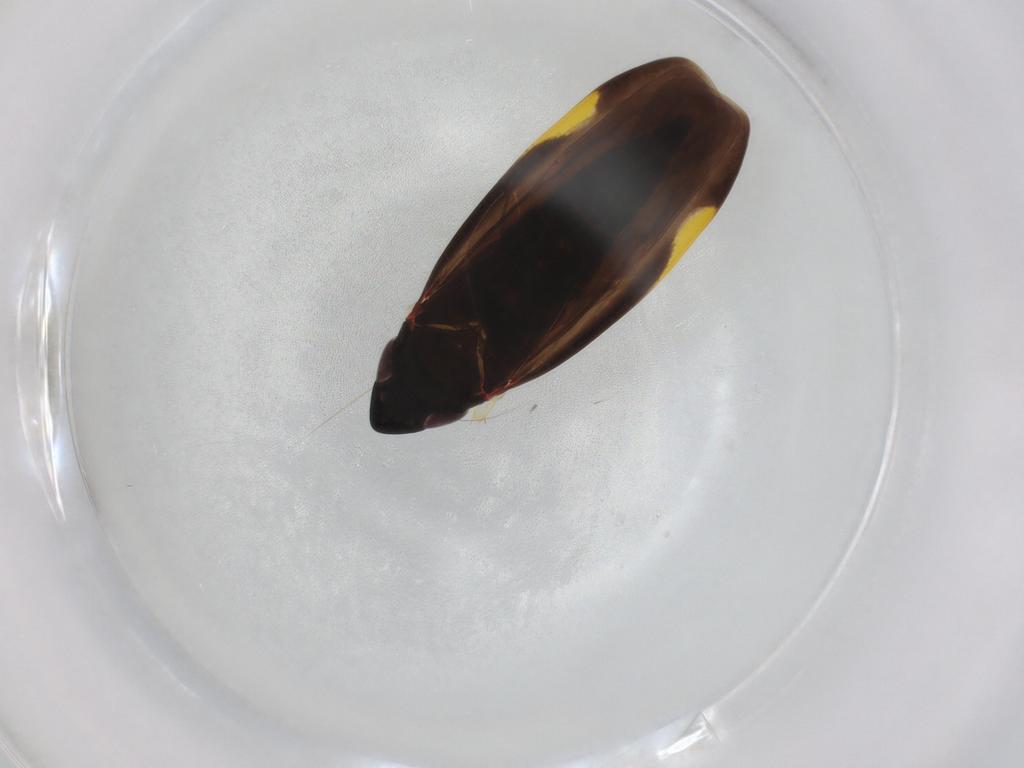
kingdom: Animalia
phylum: Arthropoda
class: Insecta
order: Hemiptera
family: Cicadellidae
